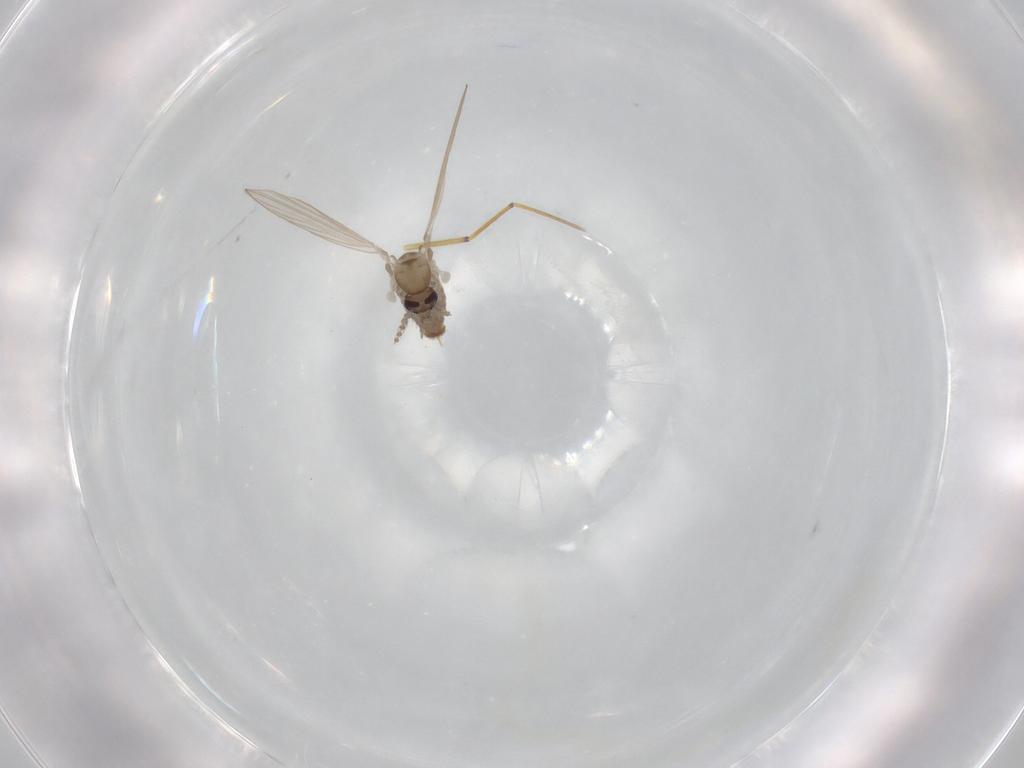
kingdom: Animalia
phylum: Arthropoda
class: Insecta
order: Diptera
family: Psychodidae
